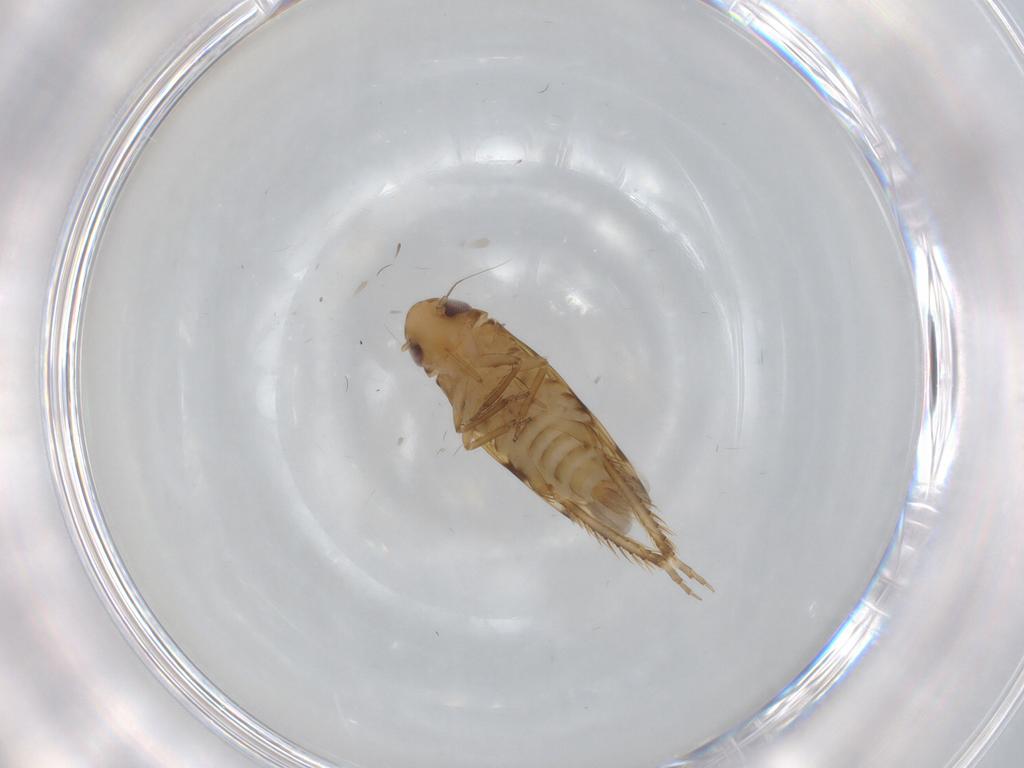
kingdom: Animalia
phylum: Arthropoda
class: Insecta
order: Hemiptera
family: Cicadellidae
